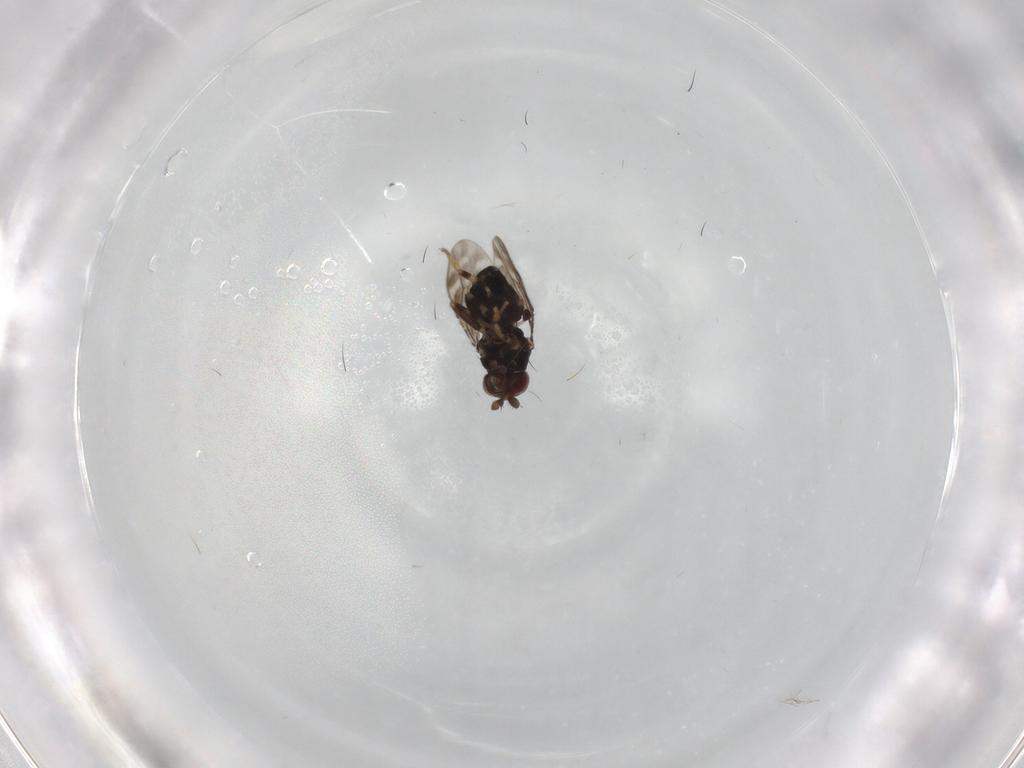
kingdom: Animalia
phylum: Arthropoda
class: Insecta
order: Diptera
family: Sphaeroceridae
